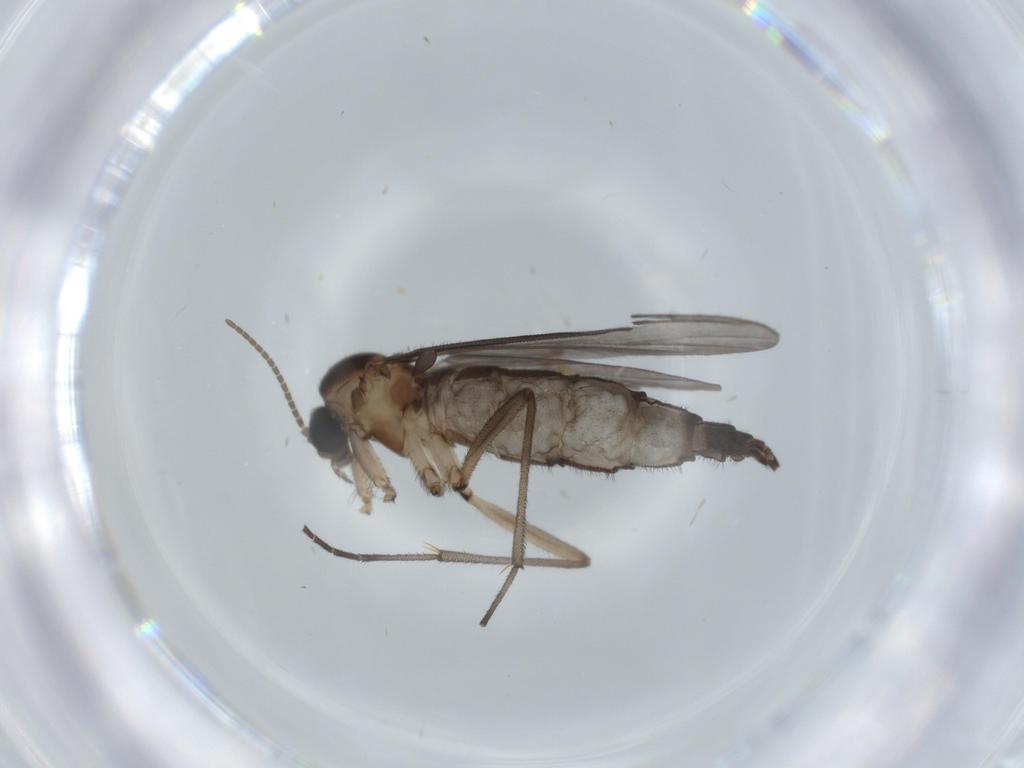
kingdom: Animalia
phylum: Arthropoda
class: Insecta
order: Diptera
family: Sciaridae
